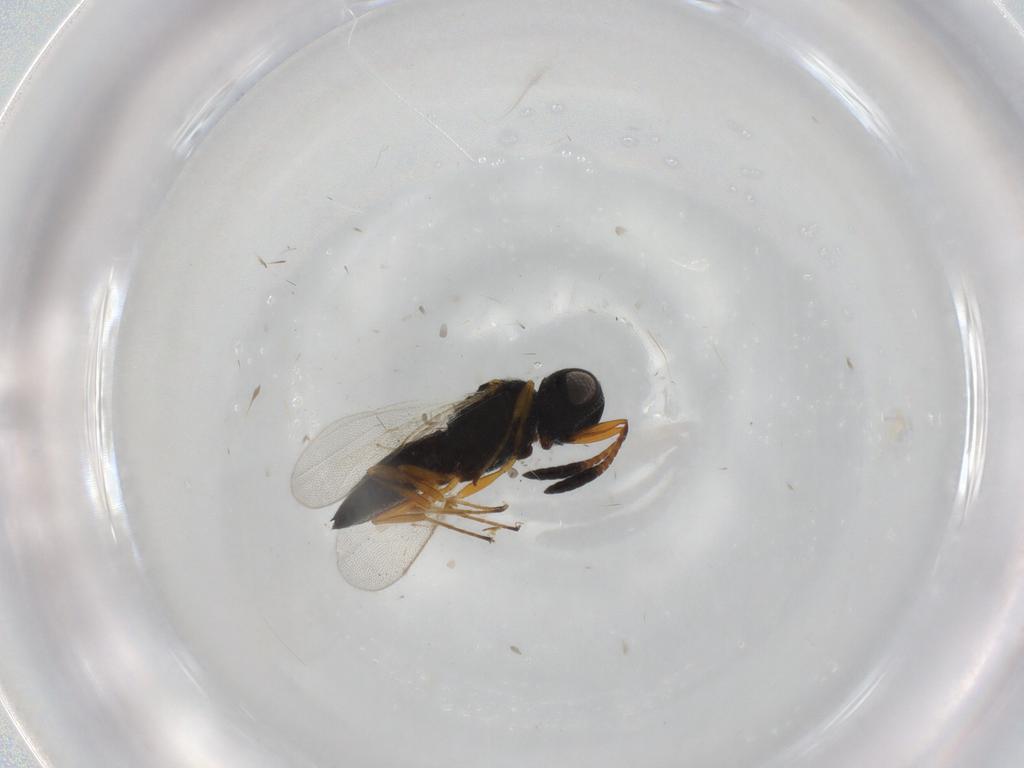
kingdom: Animalia
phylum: Arthropoda
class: Insecta
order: Hymenoptera
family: Scelionidae
